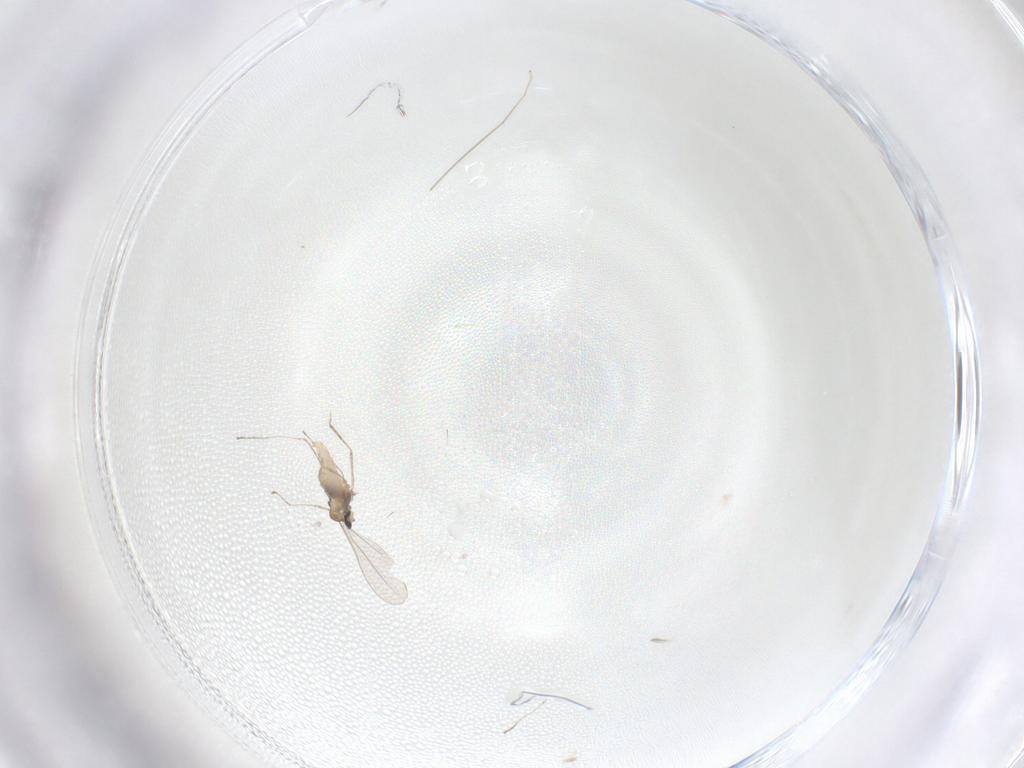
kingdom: Animalia
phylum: Arthropoda
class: Insecta
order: Diptera
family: Cecidomyiidae
